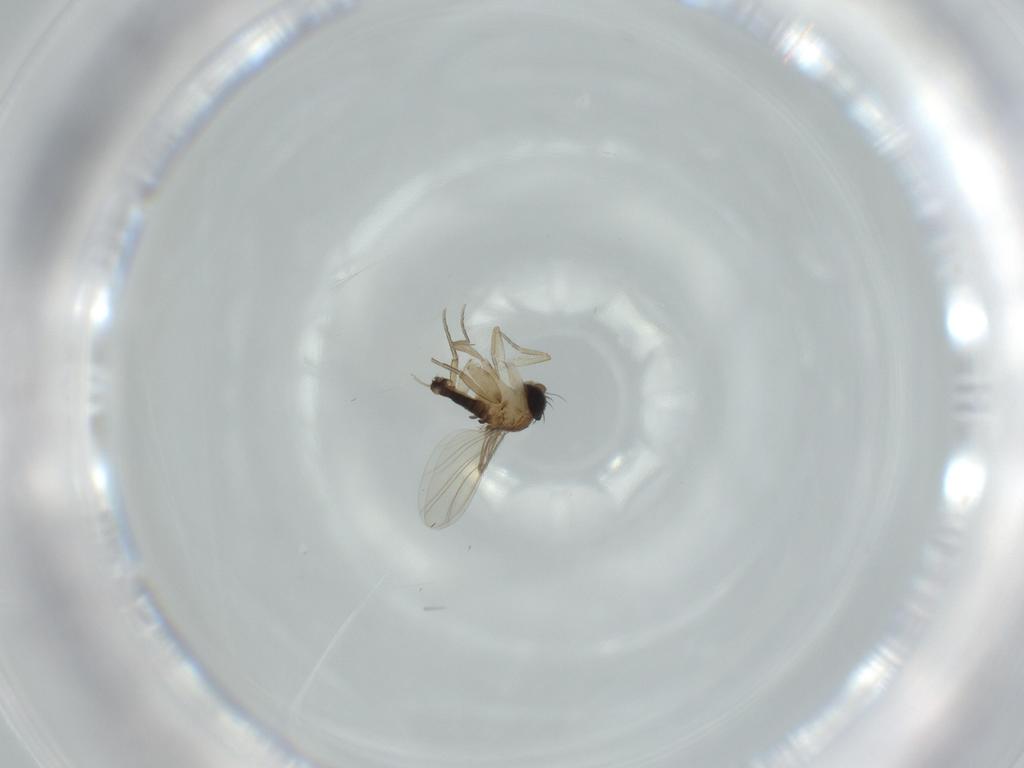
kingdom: Animalia
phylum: Arthropoda
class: Insecta
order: Diptera
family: Phoridae
